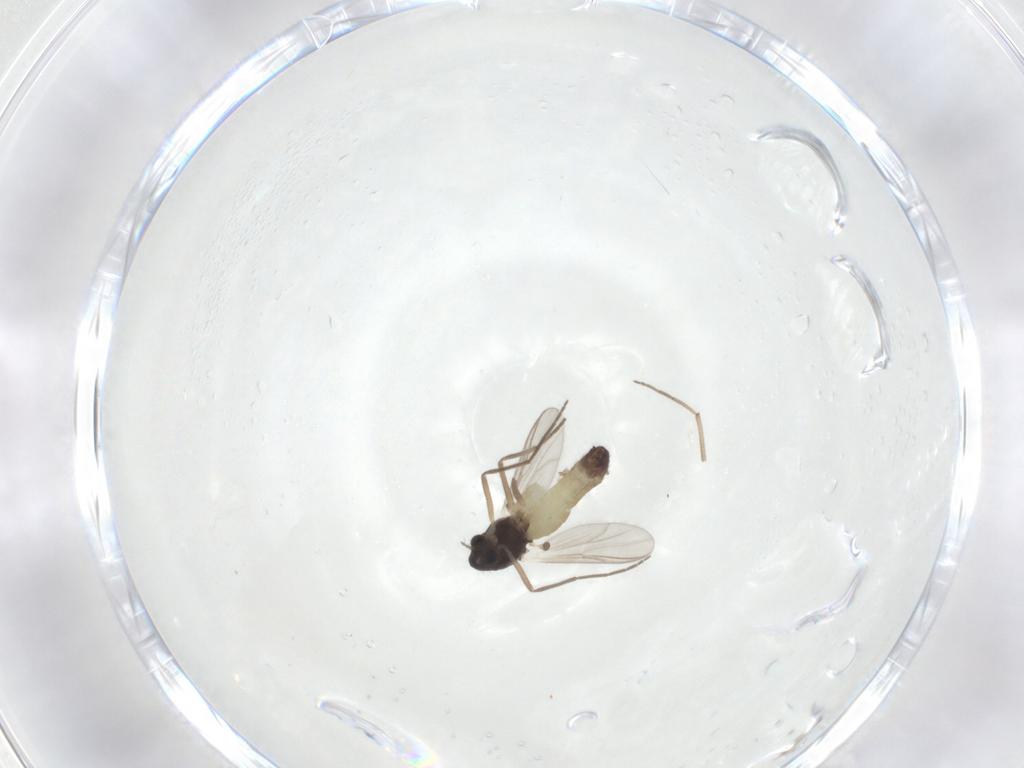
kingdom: Animalia
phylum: Arthropoda
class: Insecta
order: Diptera
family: Chironomidae
